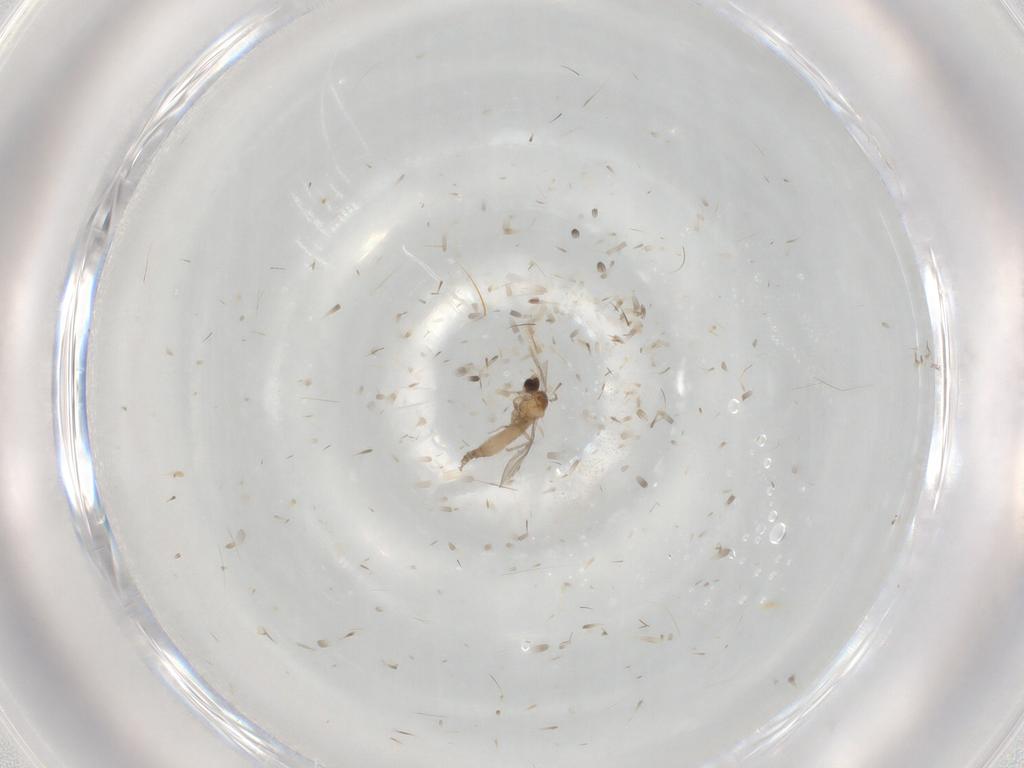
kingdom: Animalia
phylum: Arthropoda
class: Insecta
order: Diptera
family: Cecidomyiidae
